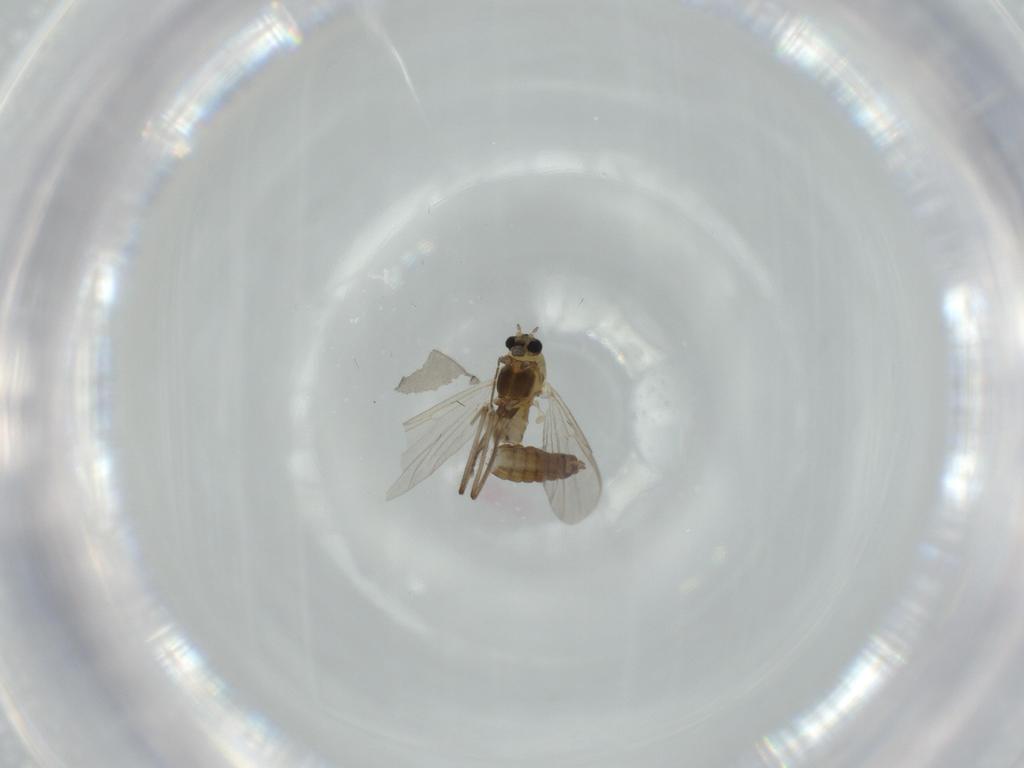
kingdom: Animalia
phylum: Arthropoda
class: Insecta
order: Diptera
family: Chironomidae
